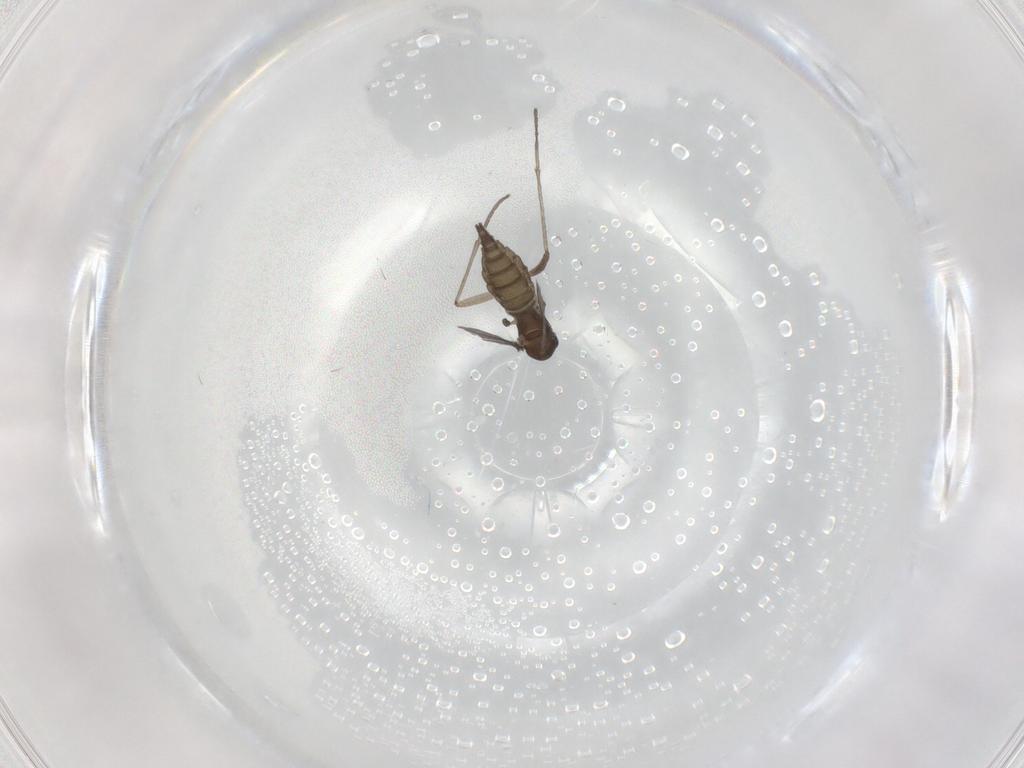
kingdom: Animalia
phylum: Arthropoda
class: Insecta
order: Diptera
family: Sciaridae
